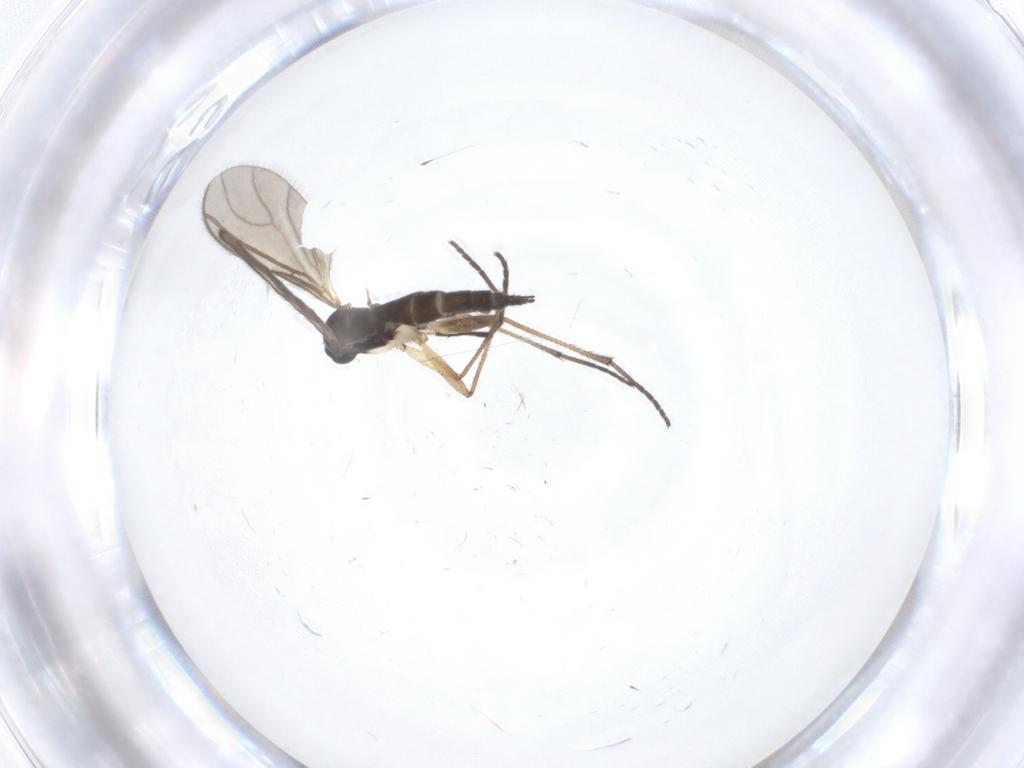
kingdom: Animalia
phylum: Arthropoda
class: Insecta
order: Diptera
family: Sciaridae
